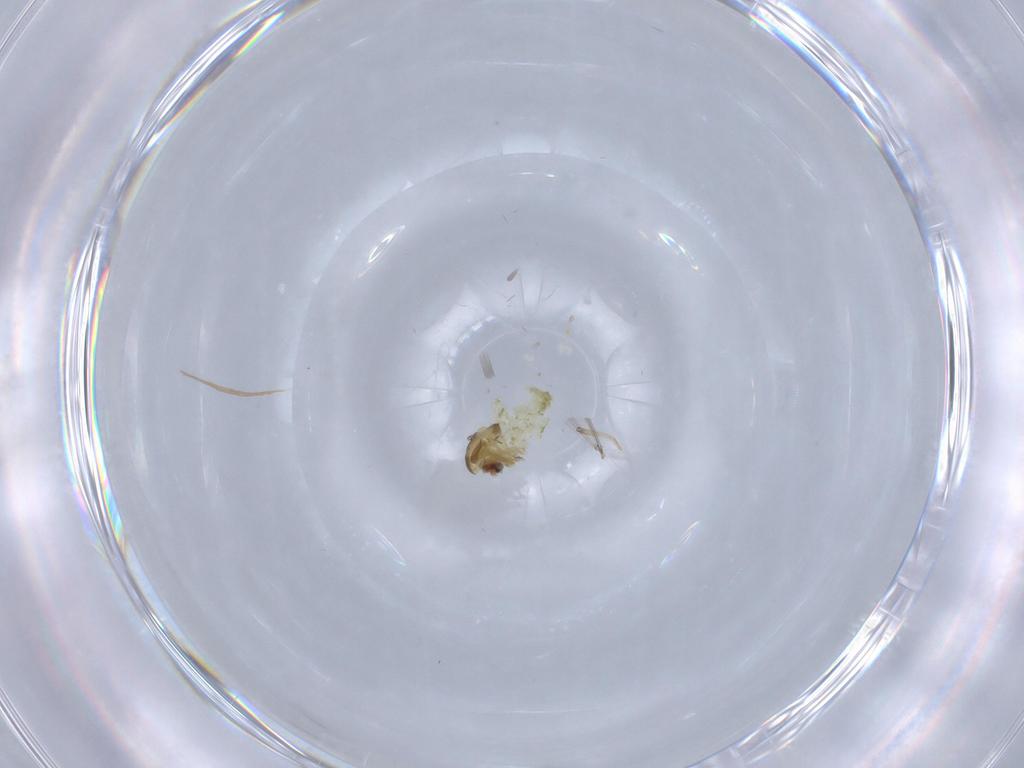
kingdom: Animalia
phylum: Arthropoda
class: Insecta
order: Diptera
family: Chironomidae
